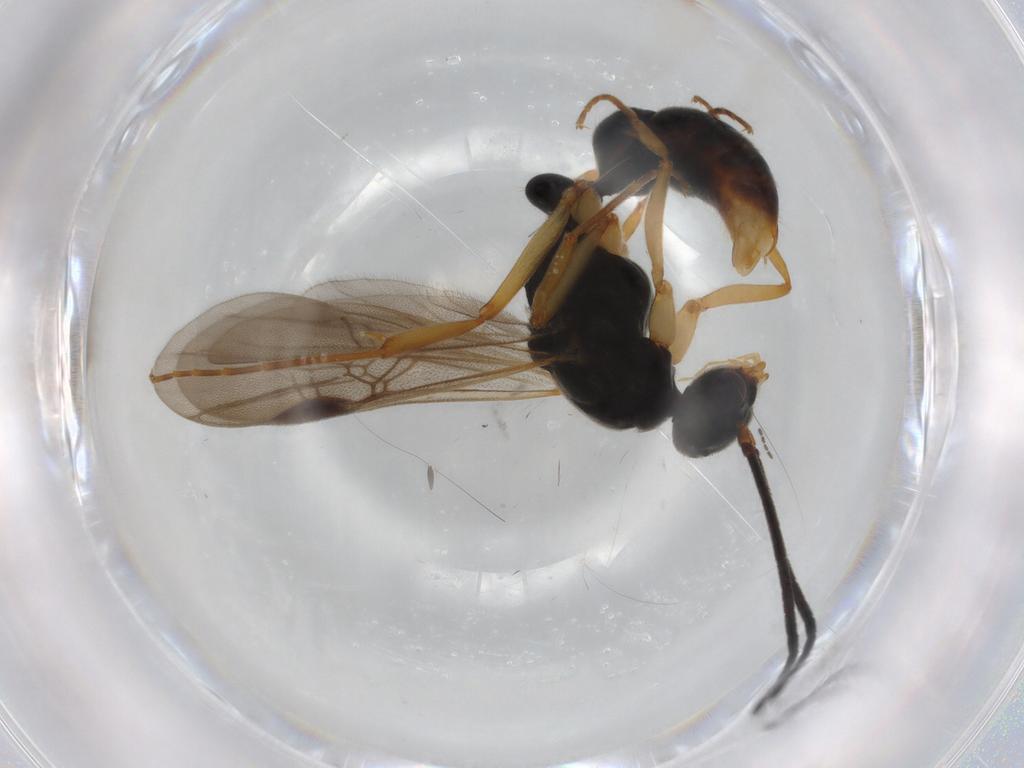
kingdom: Animalia
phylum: Arthropoda
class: Insecta
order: Hymenoptera
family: Formicidae
